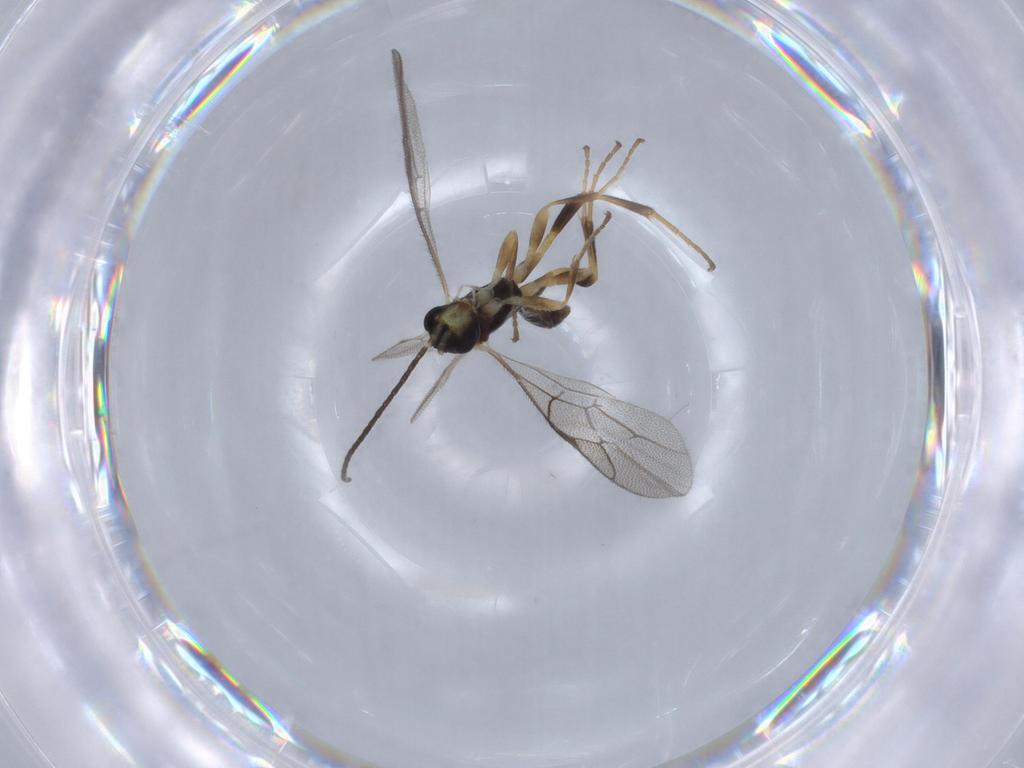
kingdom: Animalia
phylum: Arthropoda
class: Insecta
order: Hymenoptera
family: Ichneumonidae
